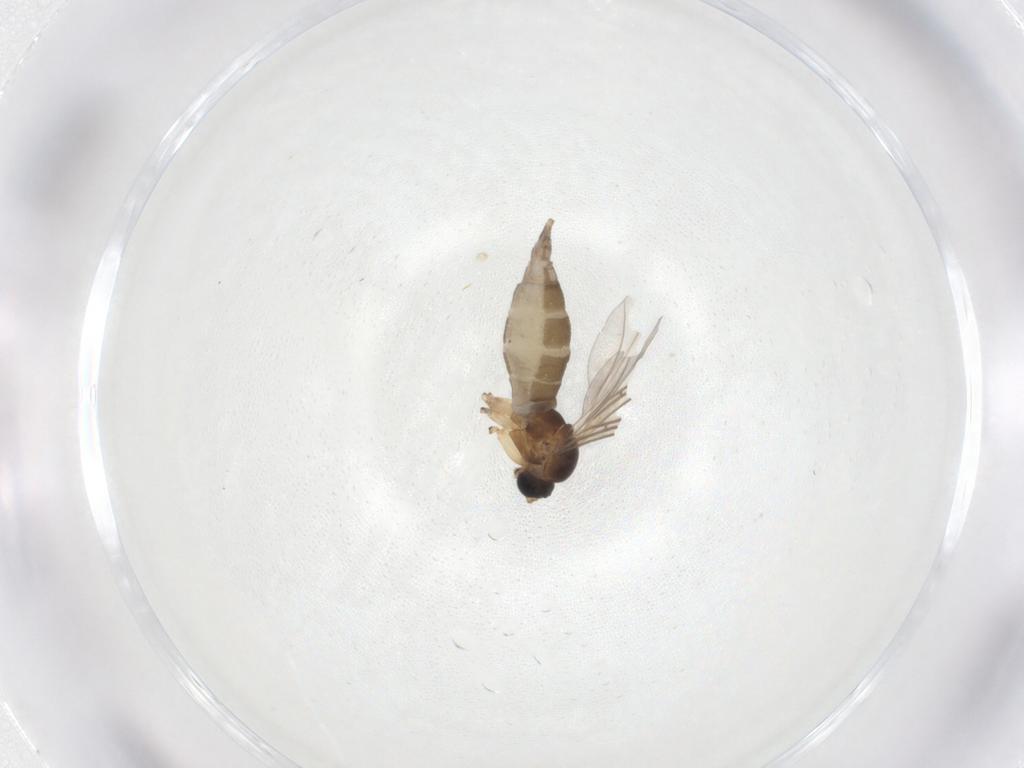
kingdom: Animalia
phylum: Arthropoda
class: Insecta
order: Diptera
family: Sciaridae
